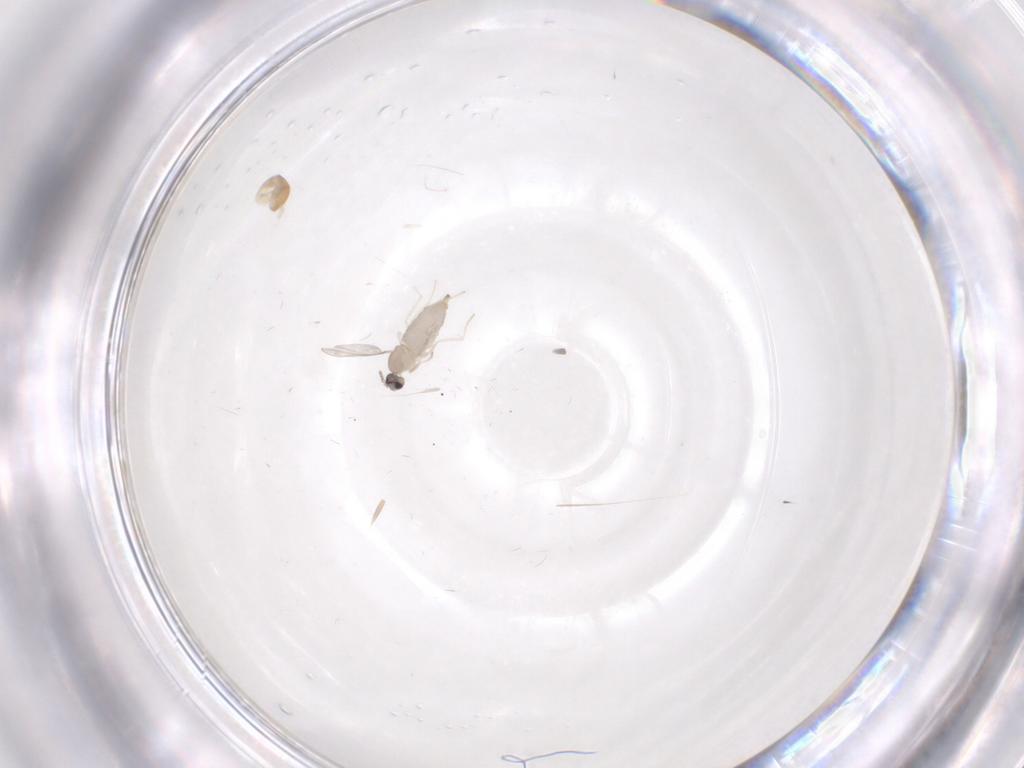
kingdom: Animalia
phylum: Arthropoda
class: Insecta
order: Diptera
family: Cecidomyiidae
